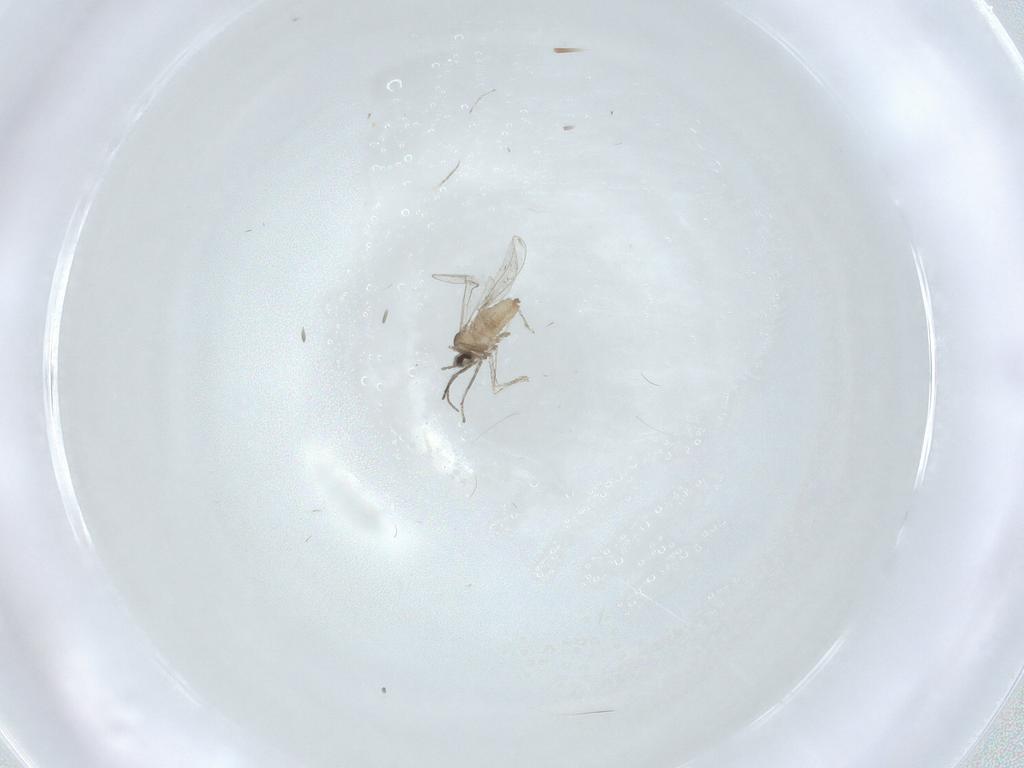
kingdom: Animalia
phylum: Arthropoda
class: Insecta
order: Diptera
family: Cecidomyiidae
